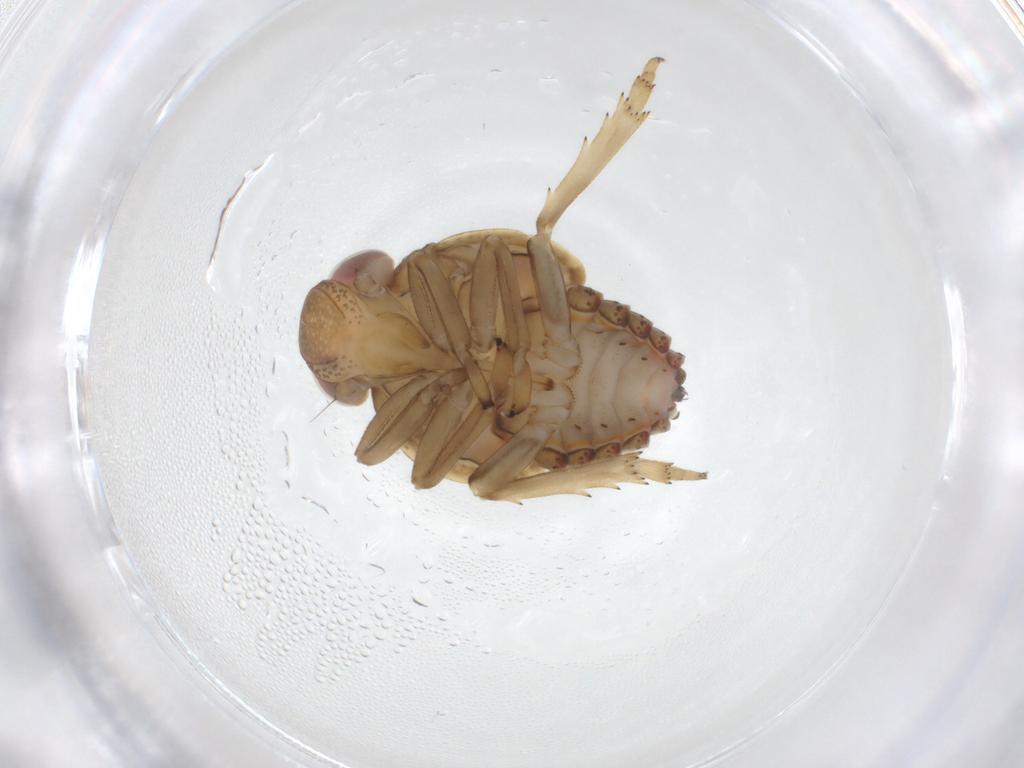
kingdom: Animalia
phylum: Arthropoda
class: Insecta
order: Hemiptera
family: Issidae
